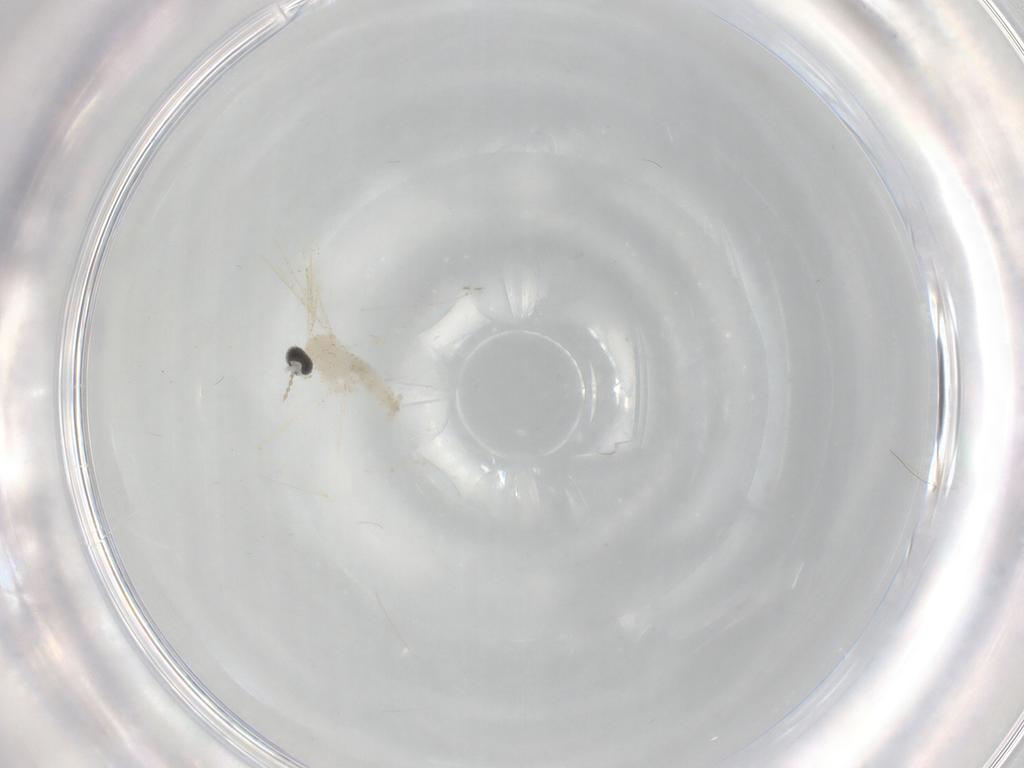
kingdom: Animalia
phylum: Arthropoda
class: Insecta
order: Diptera
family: Cecidomyiidae
